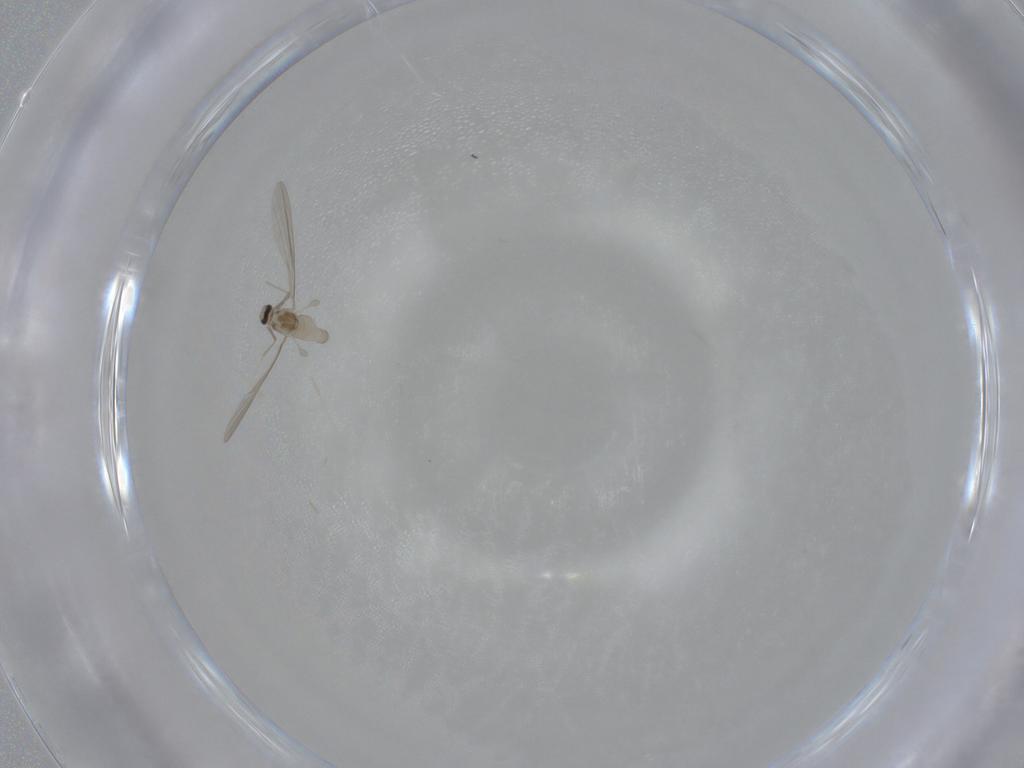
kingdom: Animalia
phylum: Arthropoda
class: Insecta
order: Diptera
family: Cecidomyiidae
